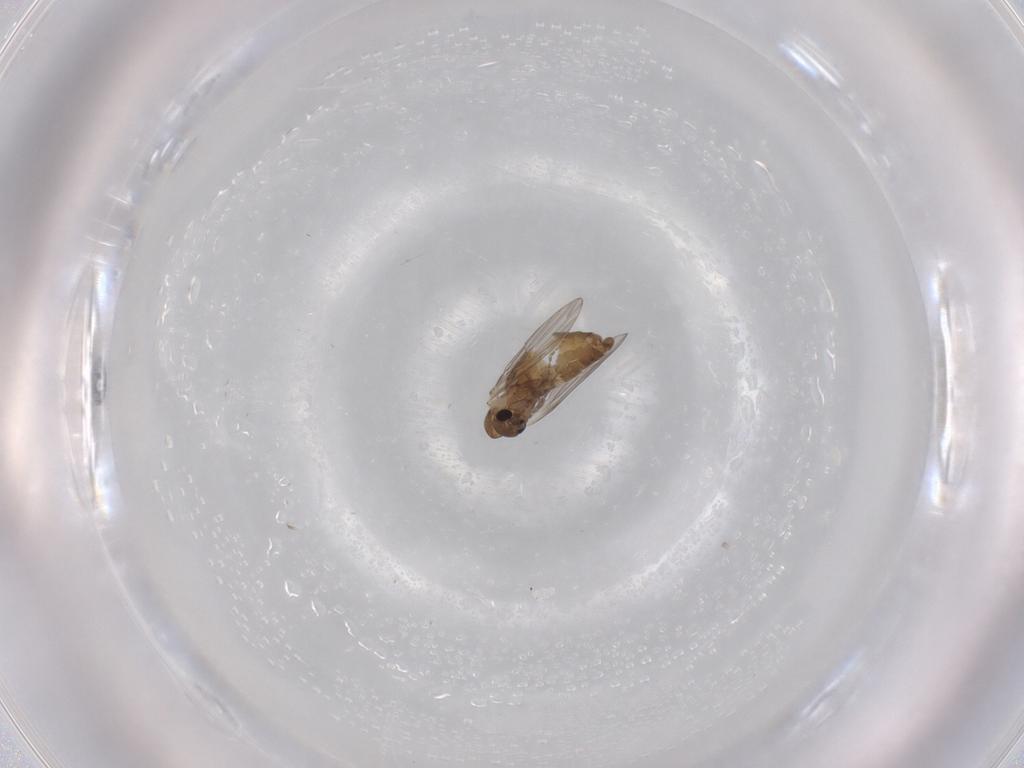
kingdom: Animalia
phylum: Arthropoda
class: Insecta
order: Diptera
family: Sciaridae
